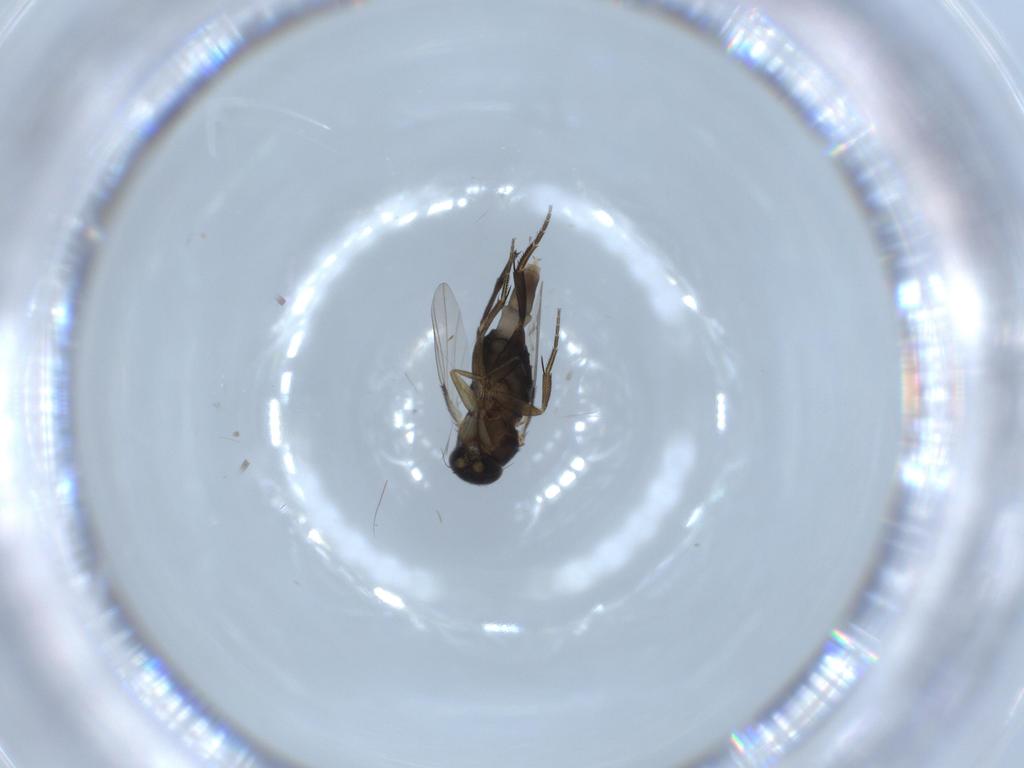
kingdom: Animalia
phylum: Arthropoda
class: Insecta
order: Diptera
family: Phoridae
